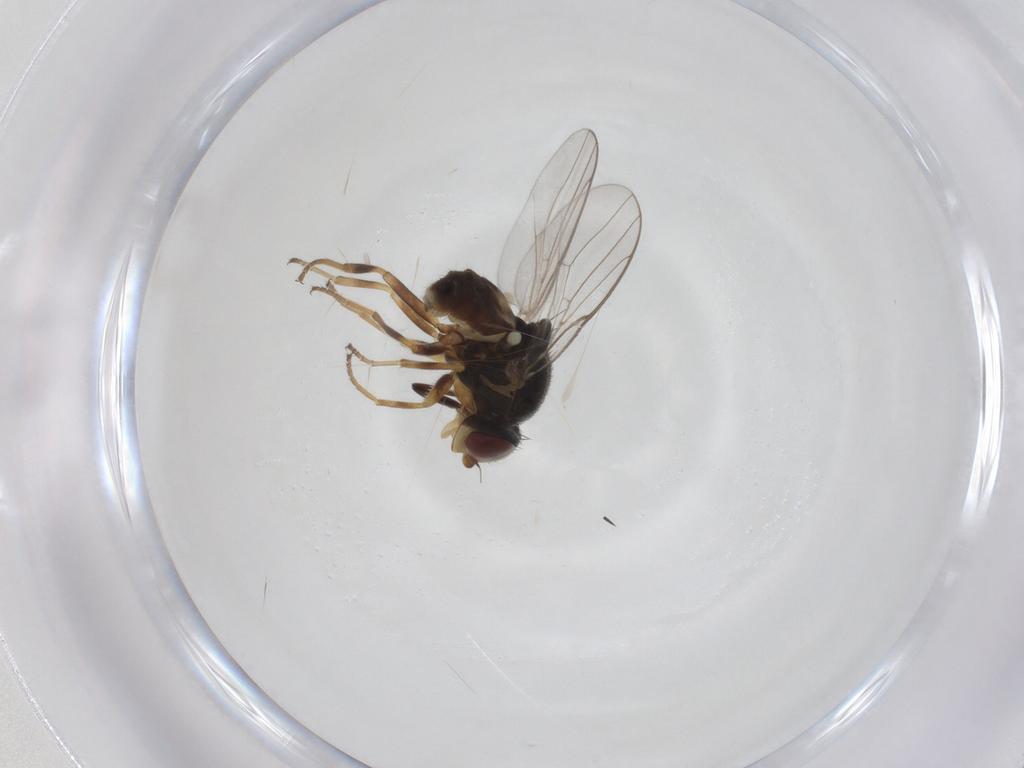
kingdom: Animalia
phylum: Arthropoda
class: Insecta
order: Diptera
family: Chloropidae
